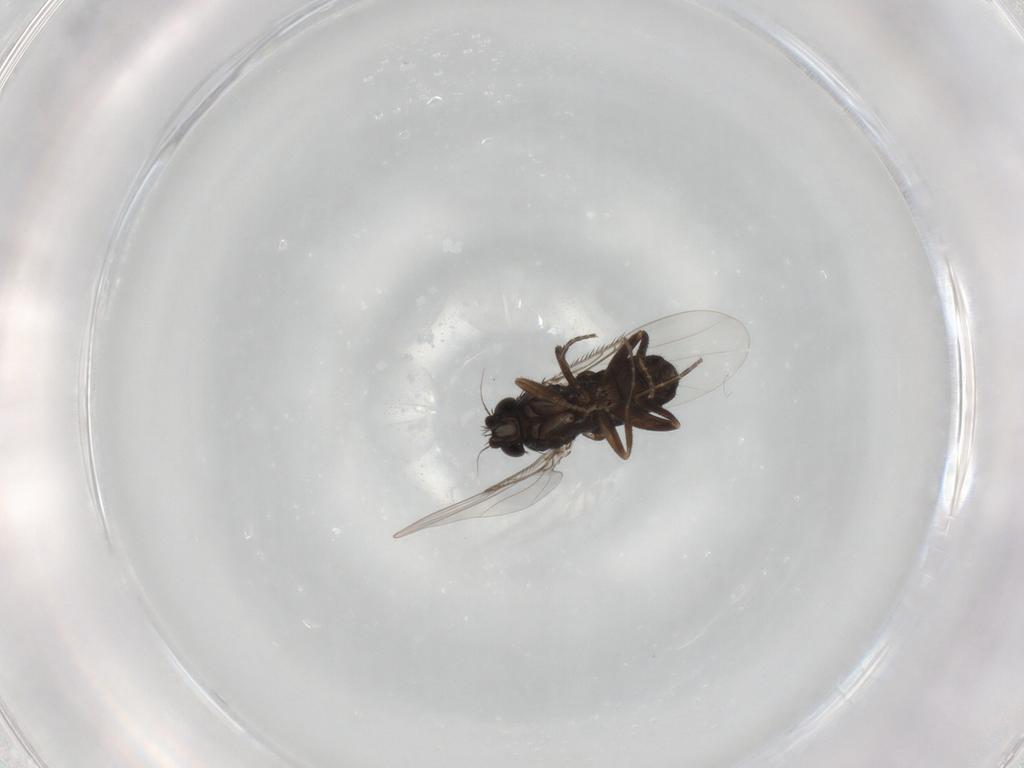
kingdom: Animalia
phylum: Arthropoda
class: Insecta
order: Diptera
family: Phoridae
